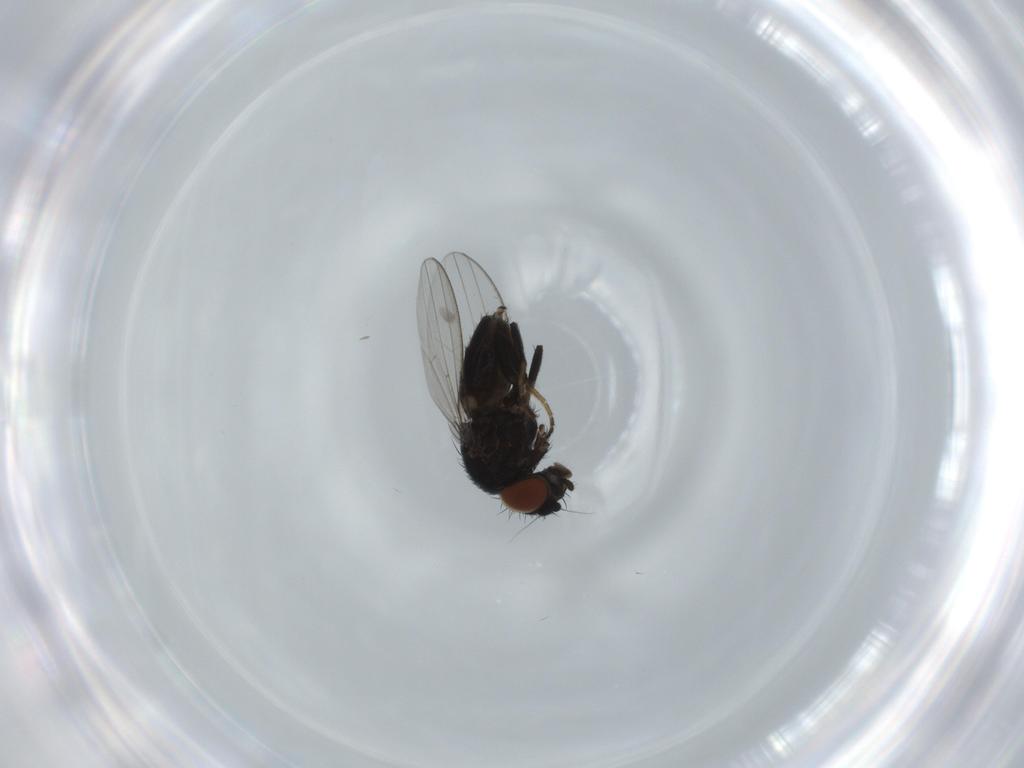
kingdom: Animalia
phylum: Arthropoda
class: Insecta
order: Diptera
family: Milichiidae
